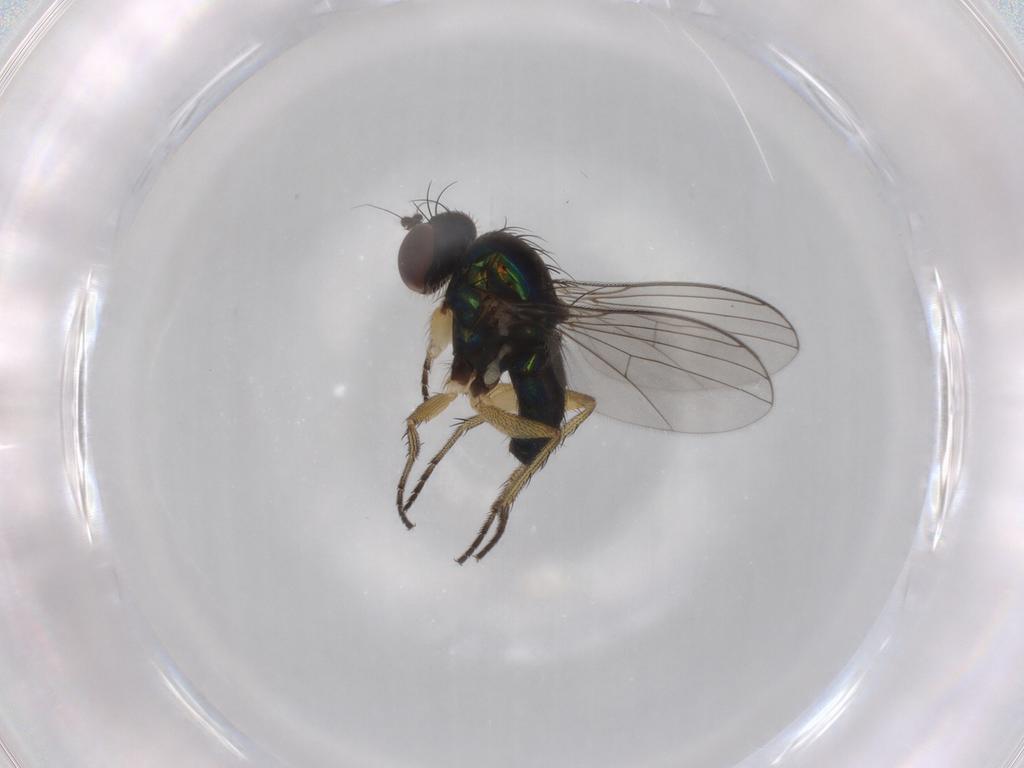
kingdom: Animalia
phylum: Arthropoda
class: Insecta
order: Diptera
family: Dolichopodidae
